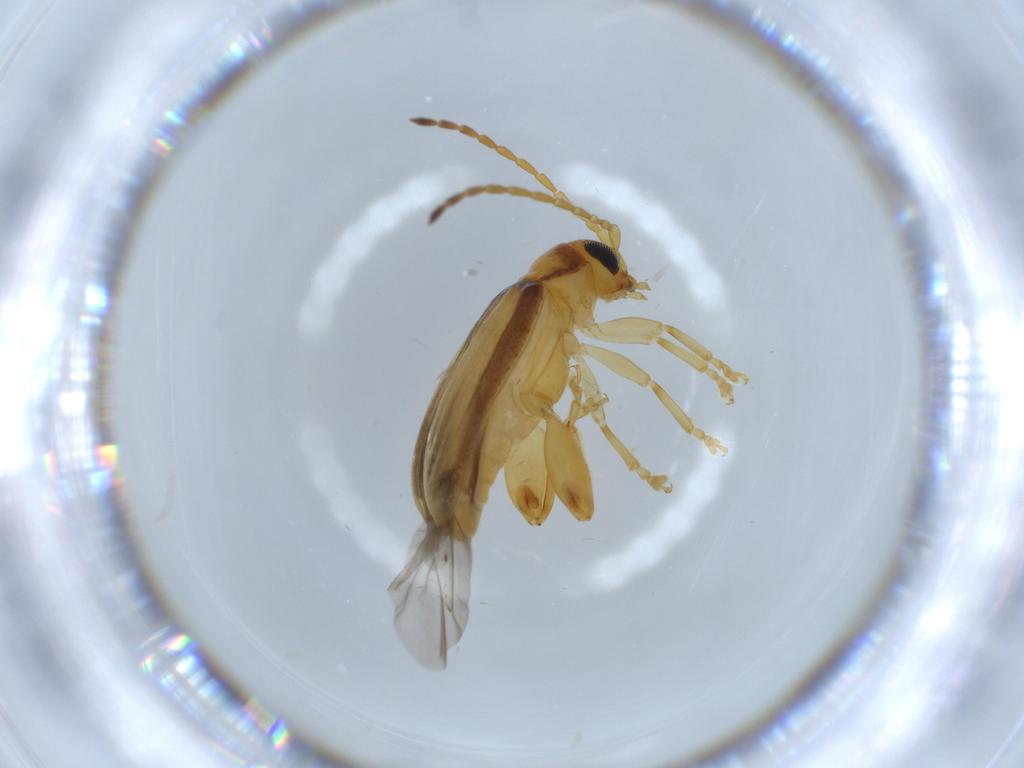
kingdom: Animalia
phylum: Arthropoda
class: Insecta
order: Coleoptera
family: Chrysomelidae
